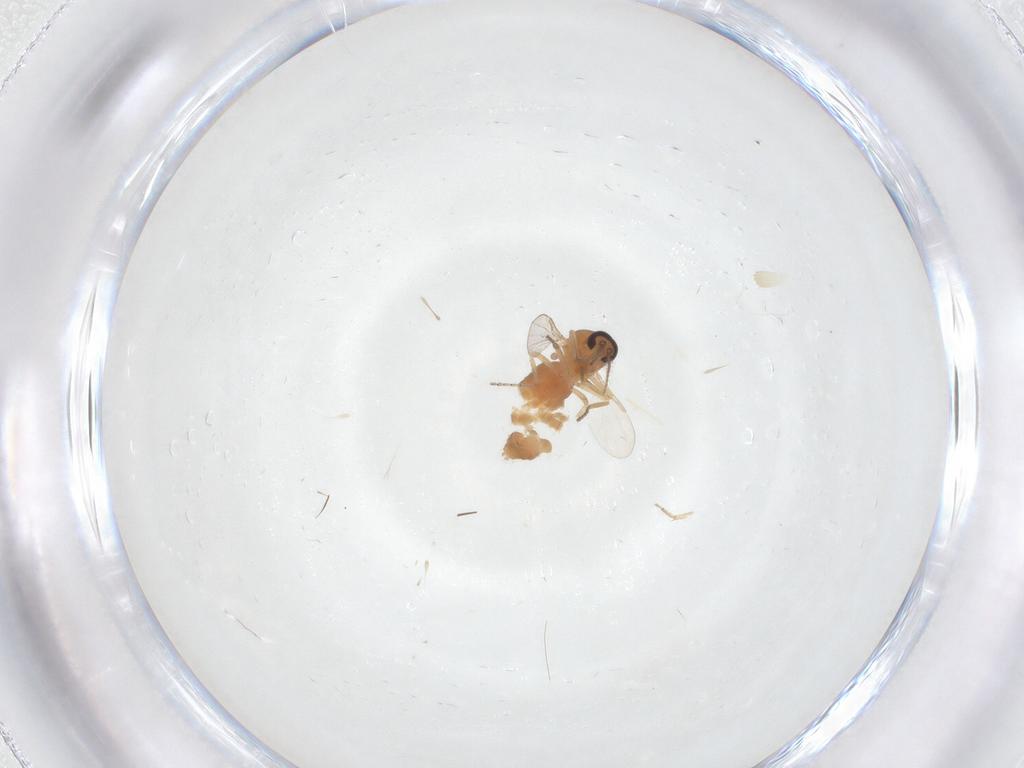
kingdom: Animalia
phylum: Arthropoda
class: Insecta
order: Diptera
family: Ceratopogonidae
